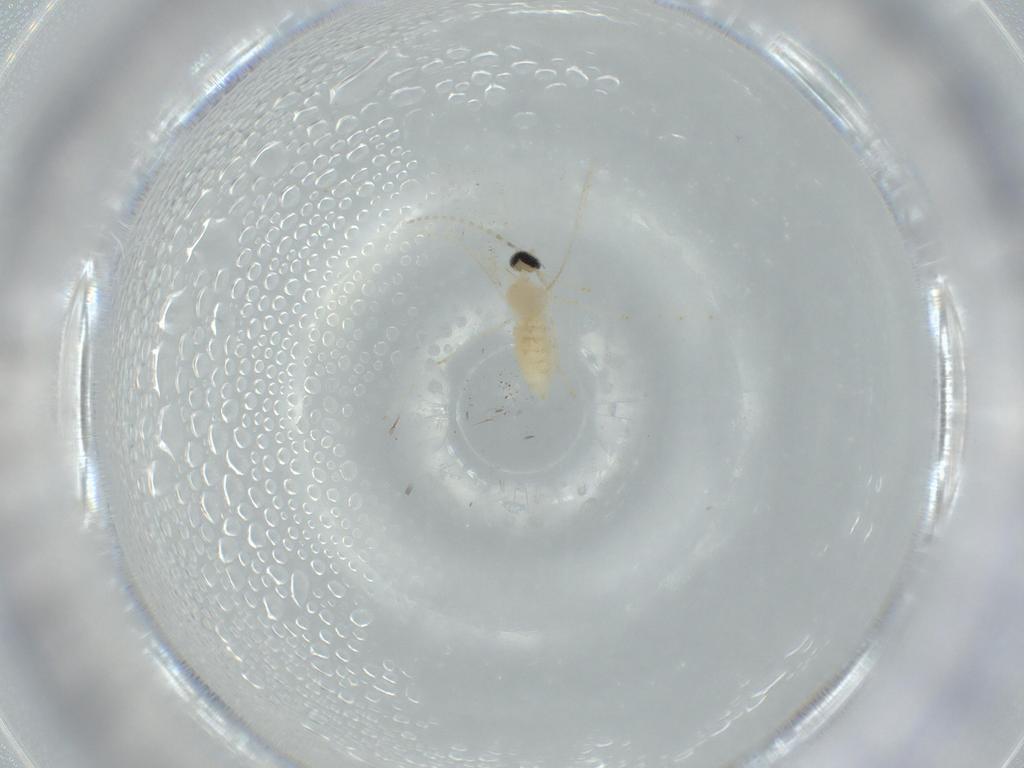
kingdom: Animalia
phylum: Arthropoda
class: Insecta
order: Diptera
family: Cecidomyiidae
